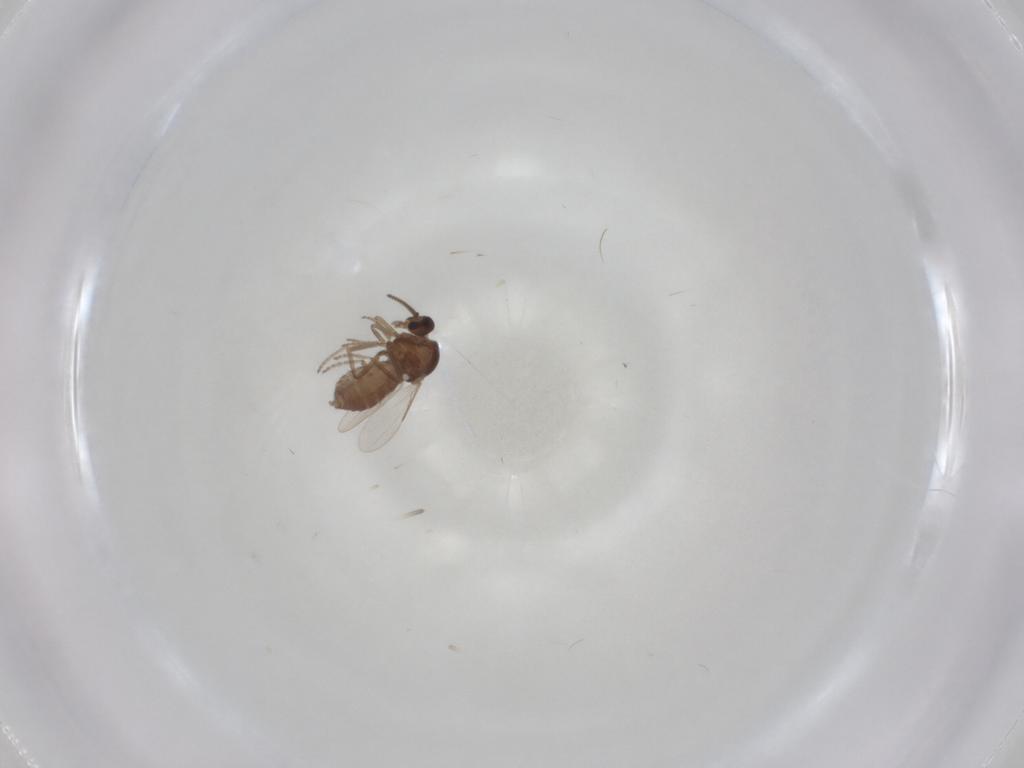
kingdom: Animalia
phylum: Arthropoda
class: Insecta
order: Diptera
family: Ceratopogonidae
